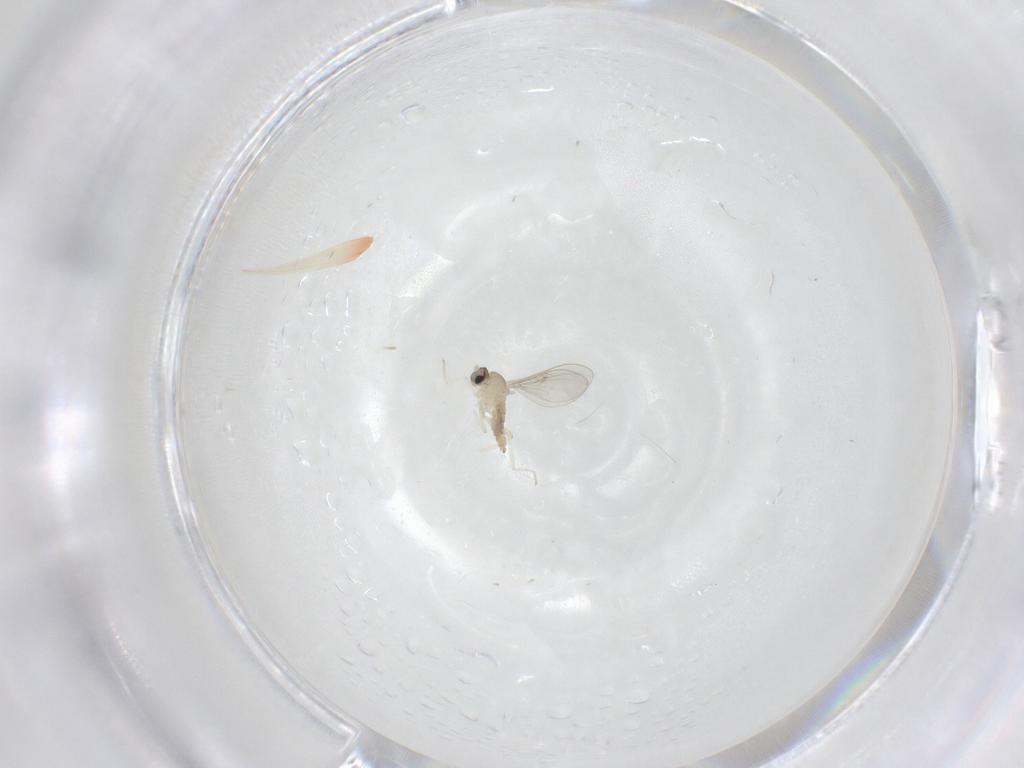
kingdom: Animalia
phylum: Arthropoda
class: Insecta
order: Diptera
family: Cecidomyiidae
